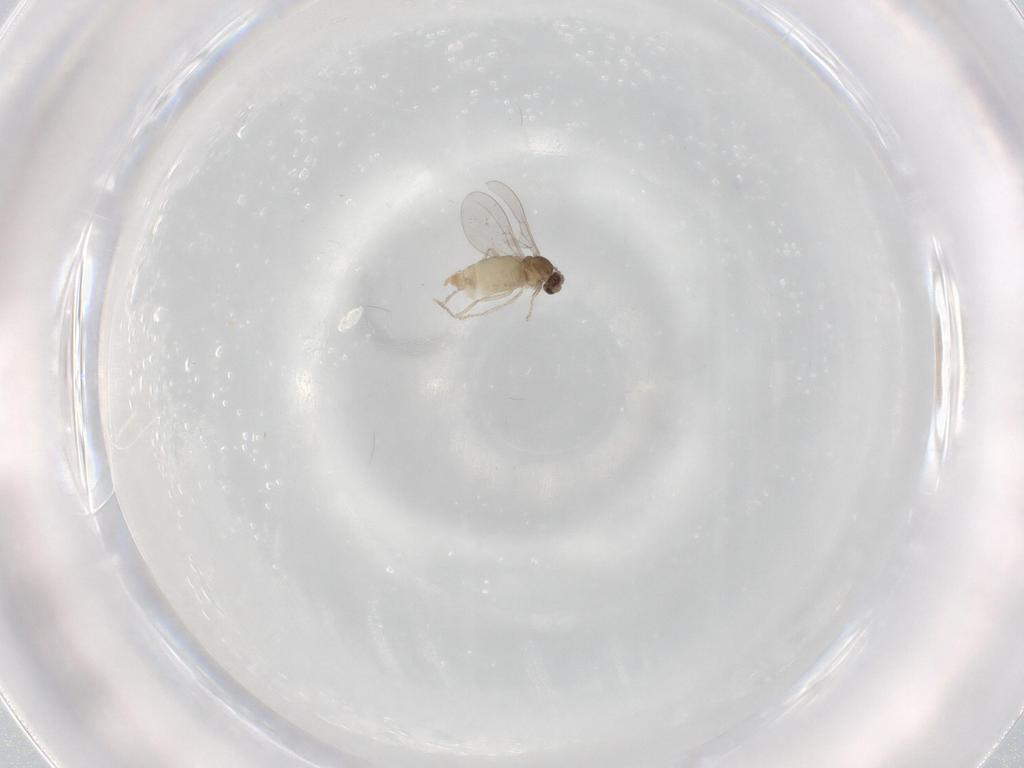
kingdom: Animalia
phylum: Arthropoda
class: Insecta
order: Diptera
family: Cecidomyiidae
